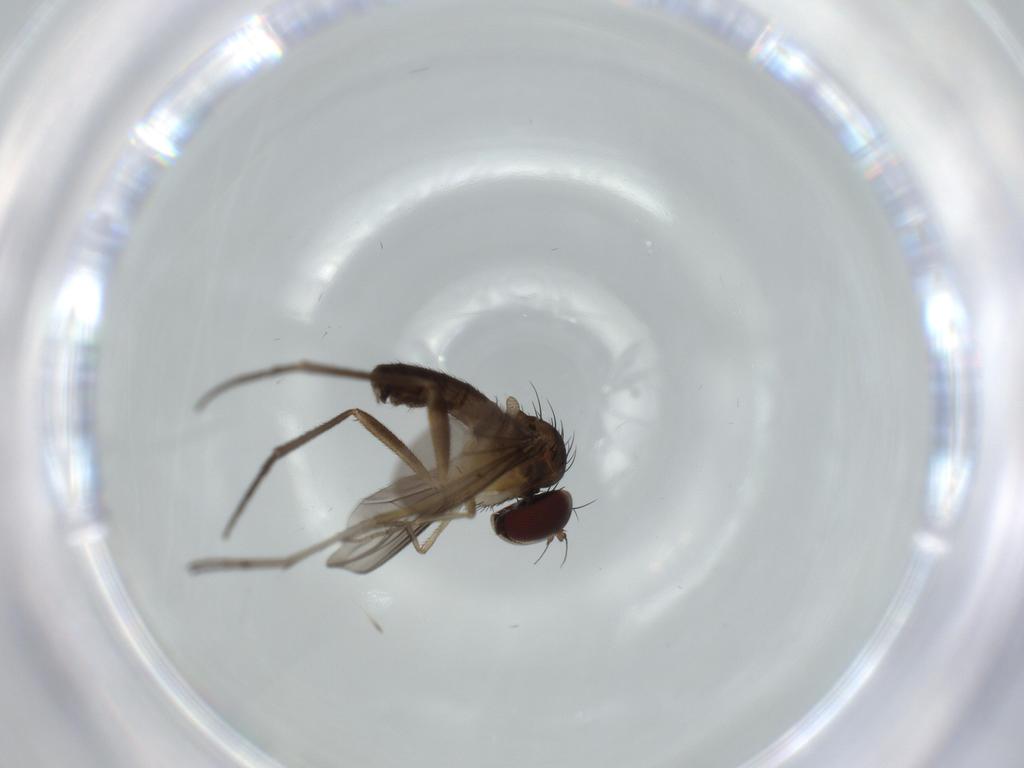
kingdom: Animalia
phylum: Arthropoda
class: Insecta
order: Diptera
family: Dolichopodidae
